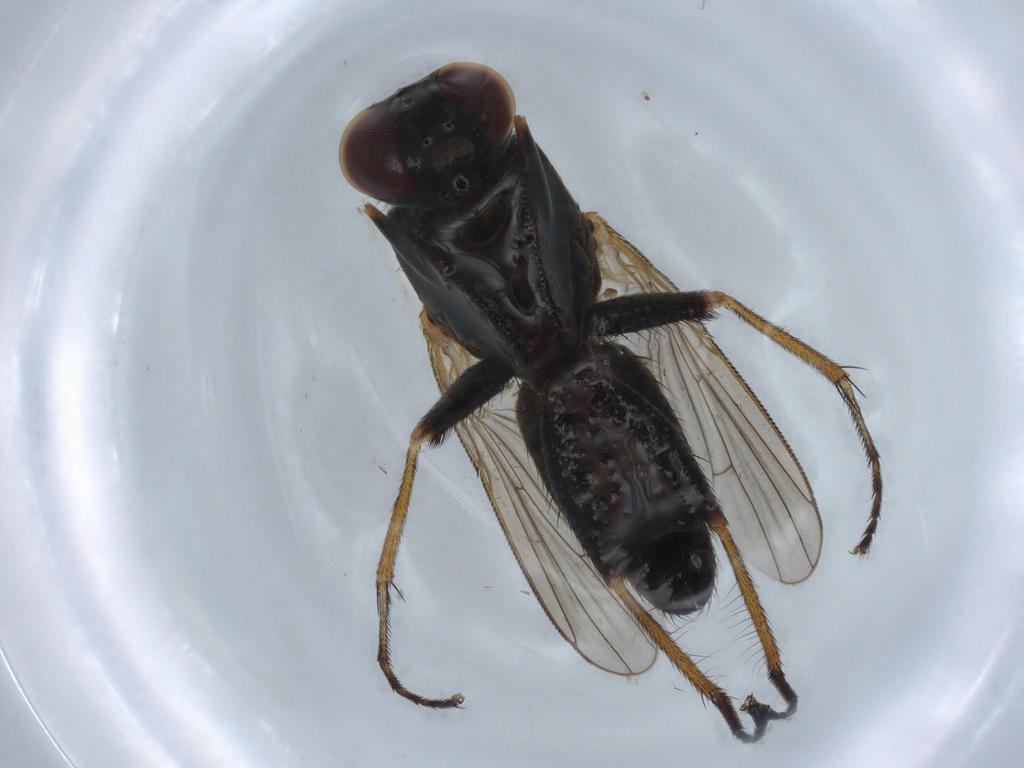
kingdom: Animalia
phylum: Arthropoda
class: Insecta
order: Diptera
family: Muscidae
